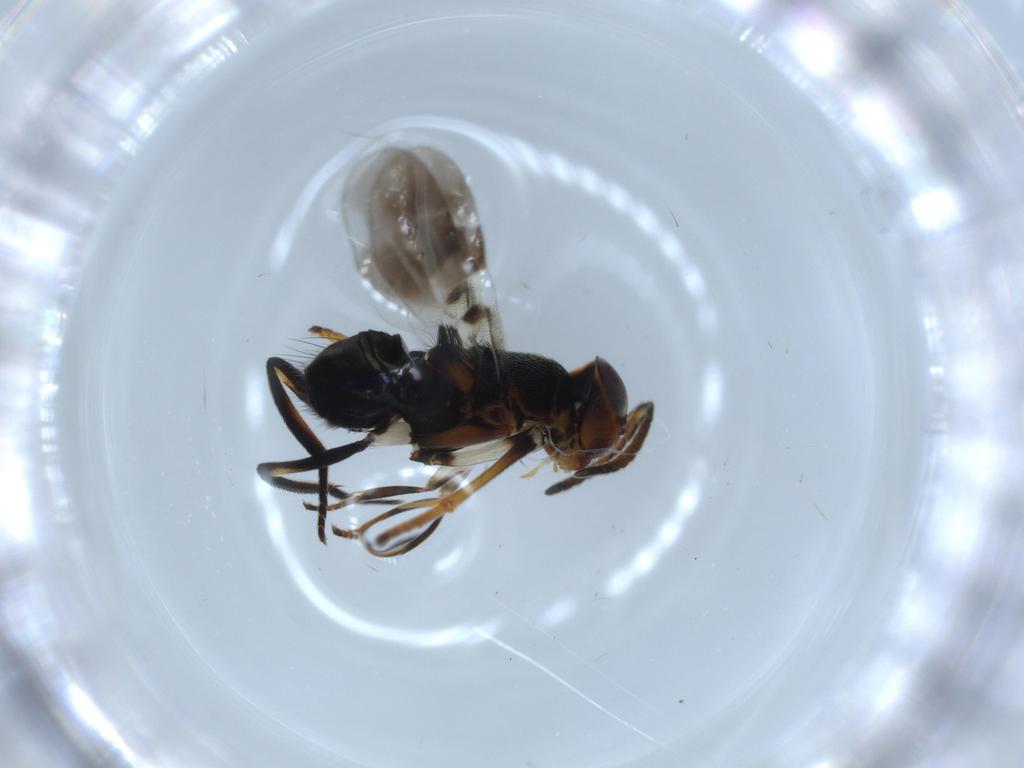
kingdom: Animalia
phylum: Arthropoda
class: Insecta
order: Hymenoptera
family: Encyrtidae
